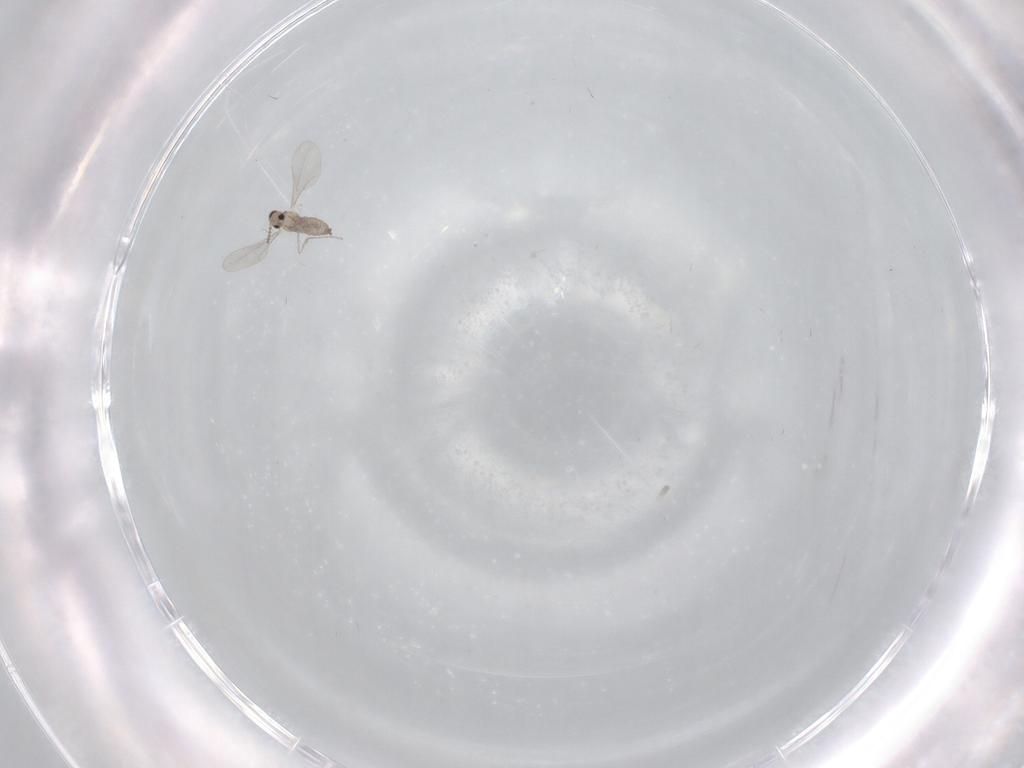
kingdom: Animalia
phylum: Arthropoda
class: Insecta
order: Diptera
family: Cecidomyiidae
